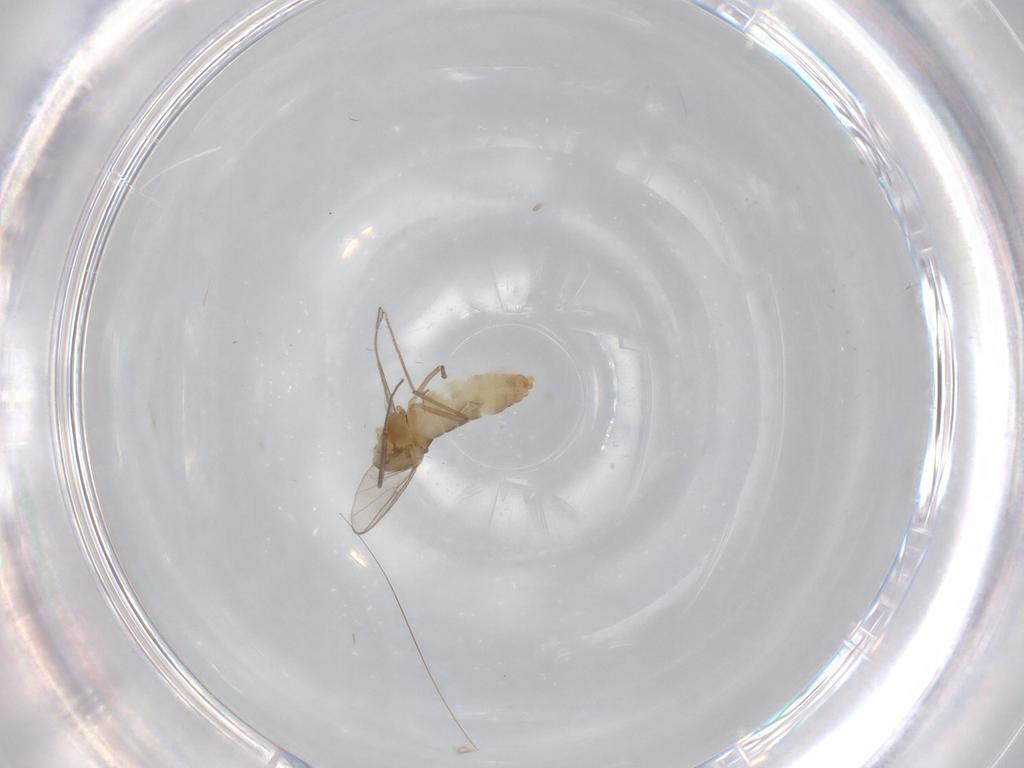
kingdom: Animalia
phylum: Arthropoda
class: Insecta
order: Diptera
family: Chironomidae
